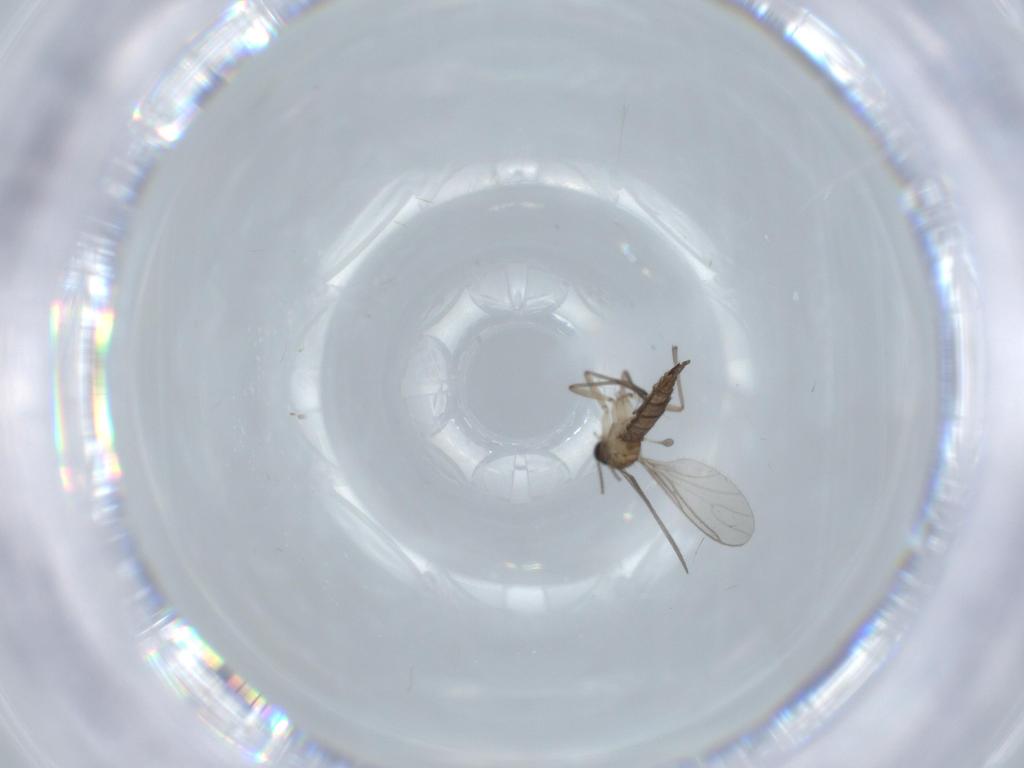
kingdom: Animalia
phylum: Arthropoda
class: Insecta
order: Diptera
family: Sciaridae
